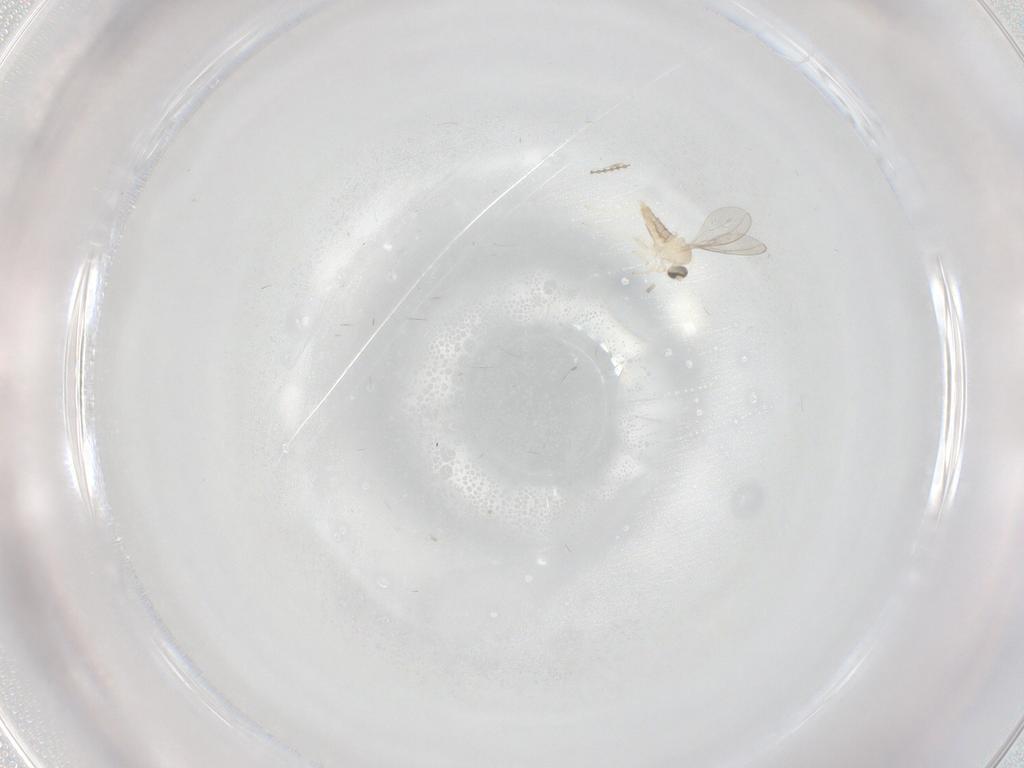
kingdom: Animalia
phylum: Arthropoda
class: Insecta
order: Diptera
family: Cecidomyiidae
